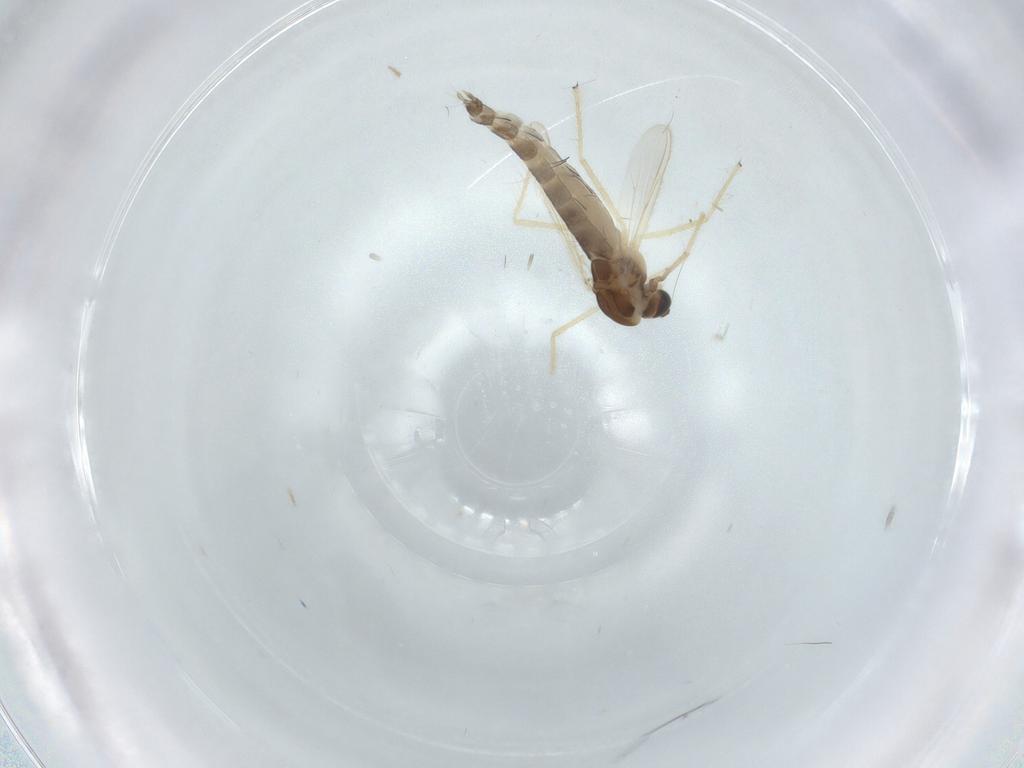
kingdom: Animalia
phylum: Arthropoda
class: Insecta
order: Diptera
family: Chironomidae
